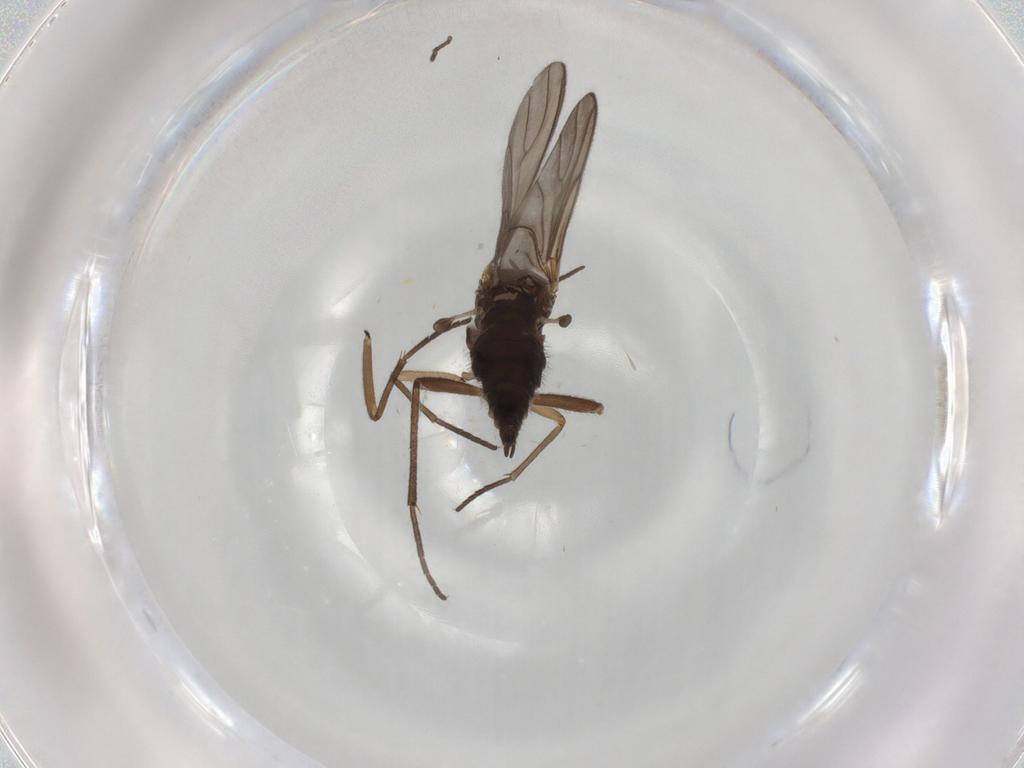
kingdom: Animalia
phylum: Arthropoda
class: Insecta
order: Diptera
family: Sciaridae
